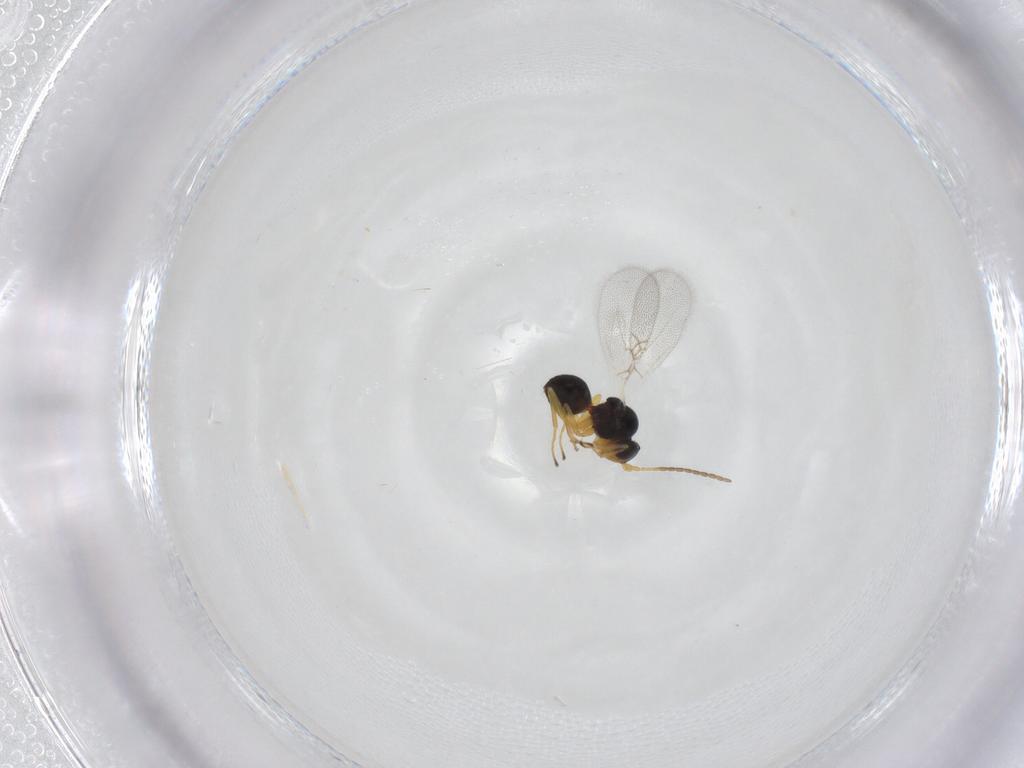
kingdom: Animalia
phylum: Arthropoda
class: Insecta
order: Hymenoptera
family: Figitidae
